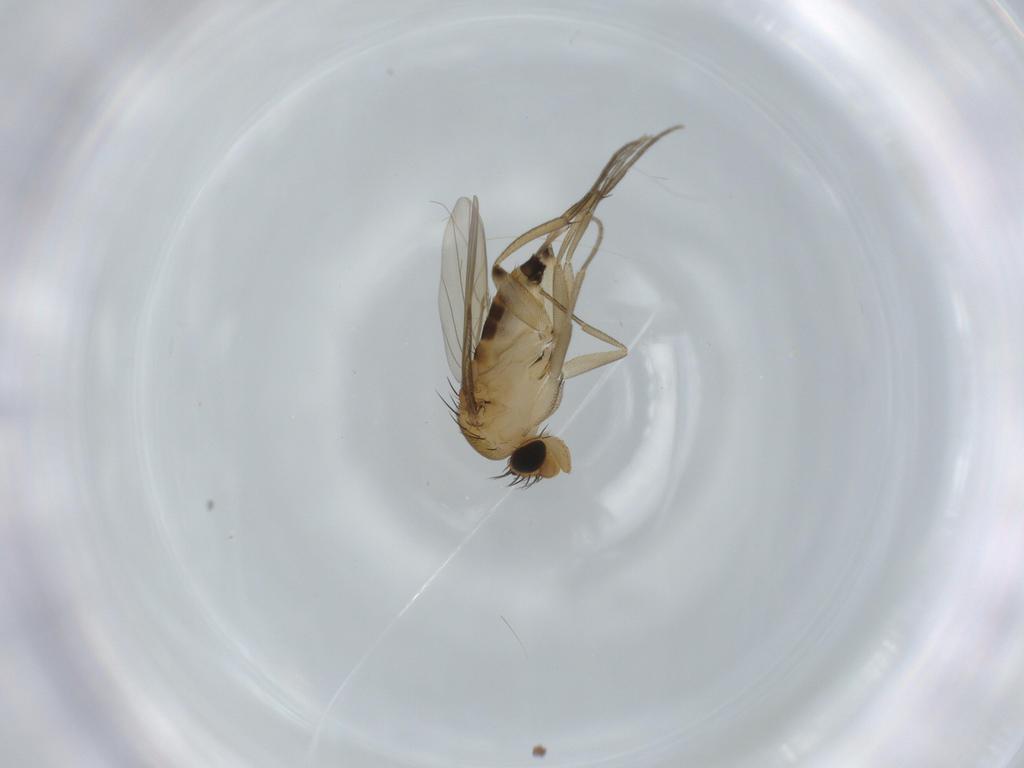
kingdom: Animalia
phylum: Arthropoda
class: Insecta
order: Diptera
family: Phoridae
